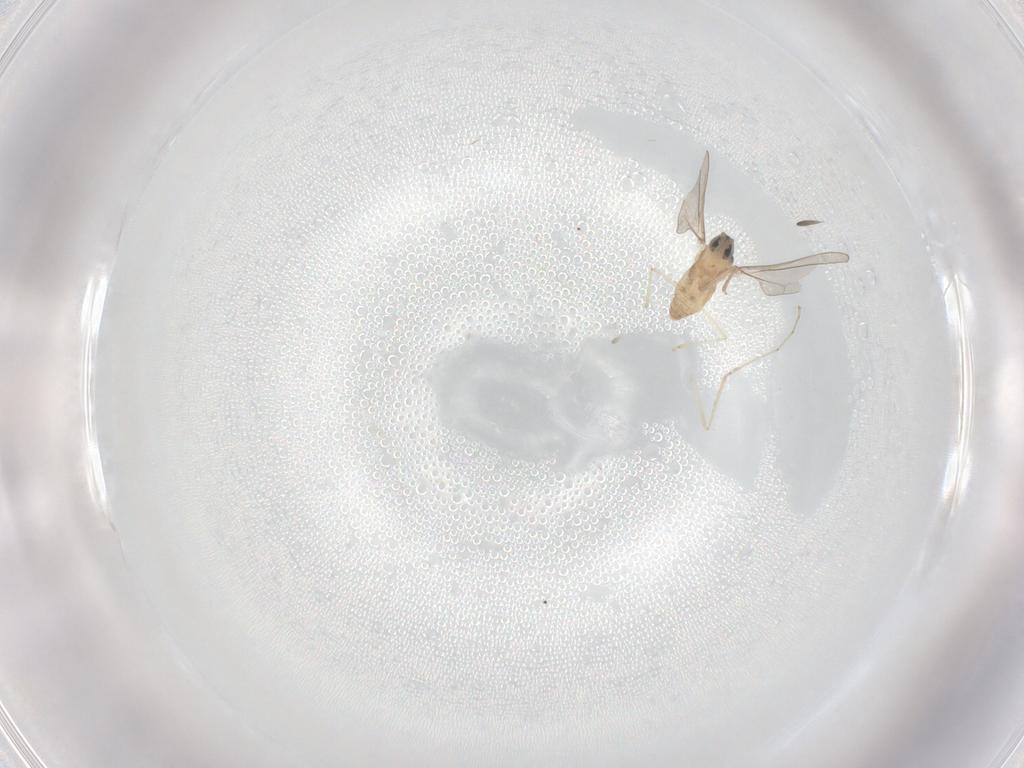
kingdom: Animalia
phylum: Arthropoda
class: Insecta
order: Diptera
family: Cecidomyiidae
